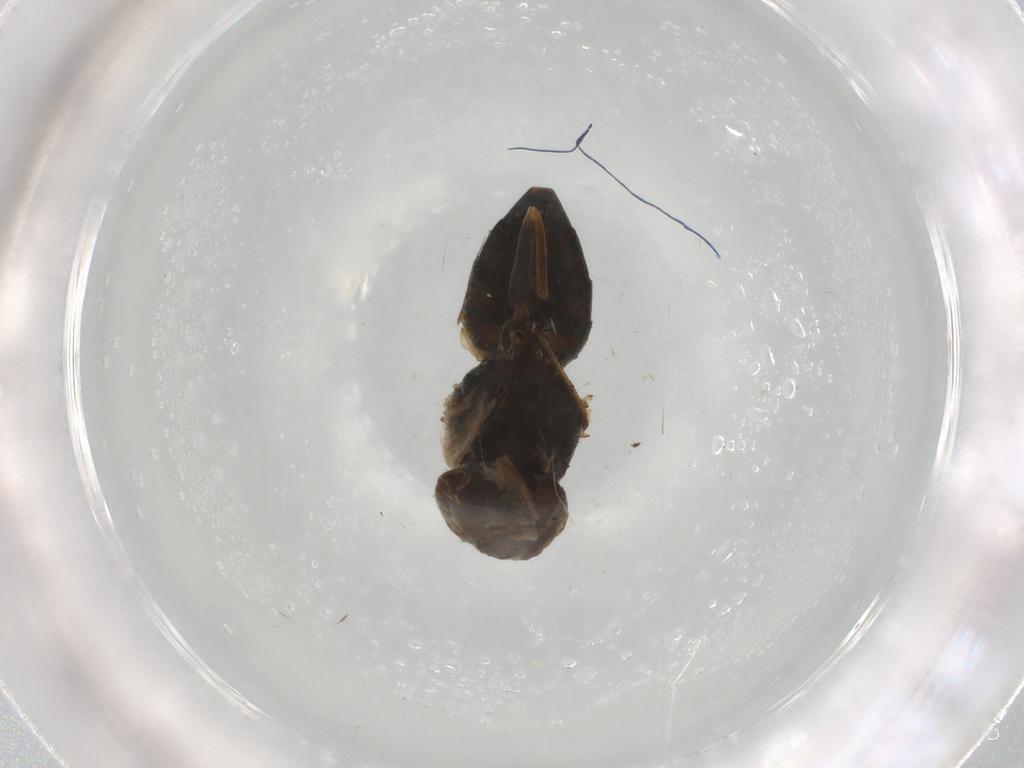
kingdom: Animalia
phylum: Arthropoda
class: Insecta
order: Diptera
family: Ephydridae
